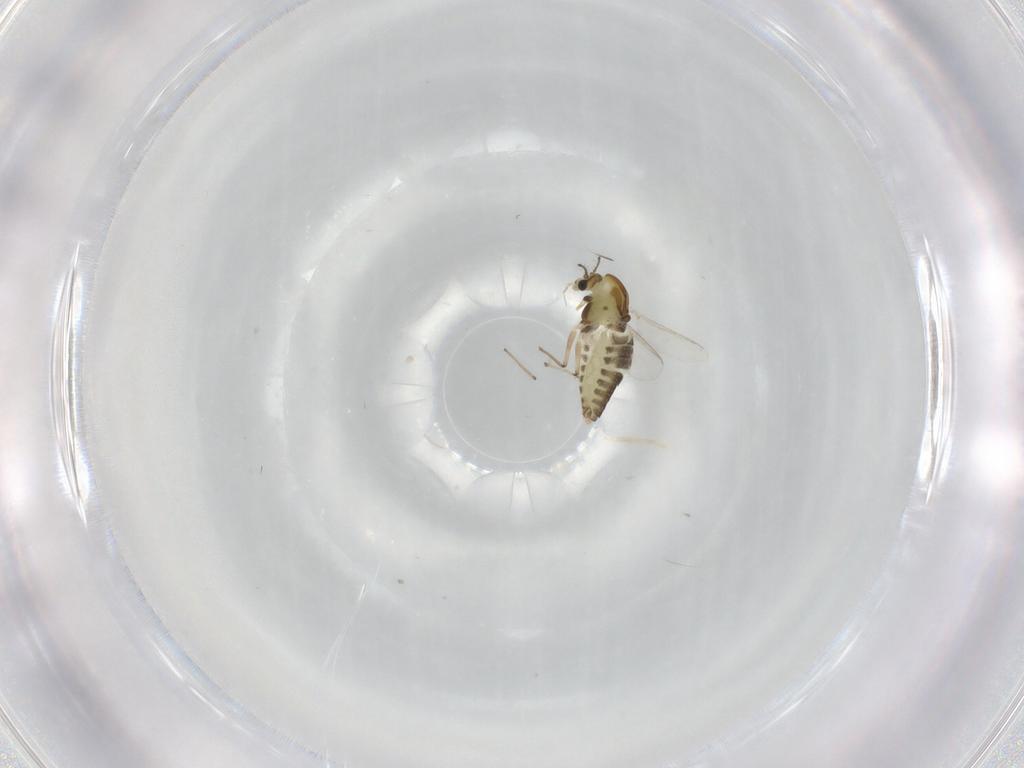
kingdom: Animalia
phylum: Arthropoda
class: Insecta
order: Diptera
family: Chironomidae
